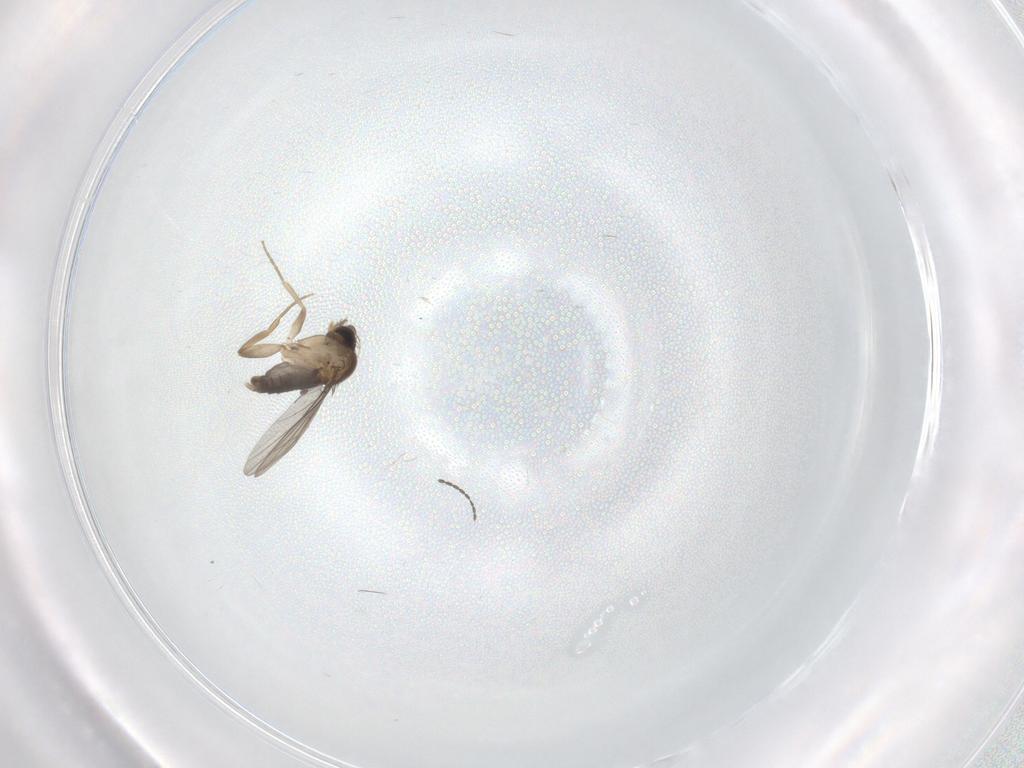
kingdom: Animalia
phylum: Arthropoda
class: Insecta
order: Diptera
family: Phoridae
